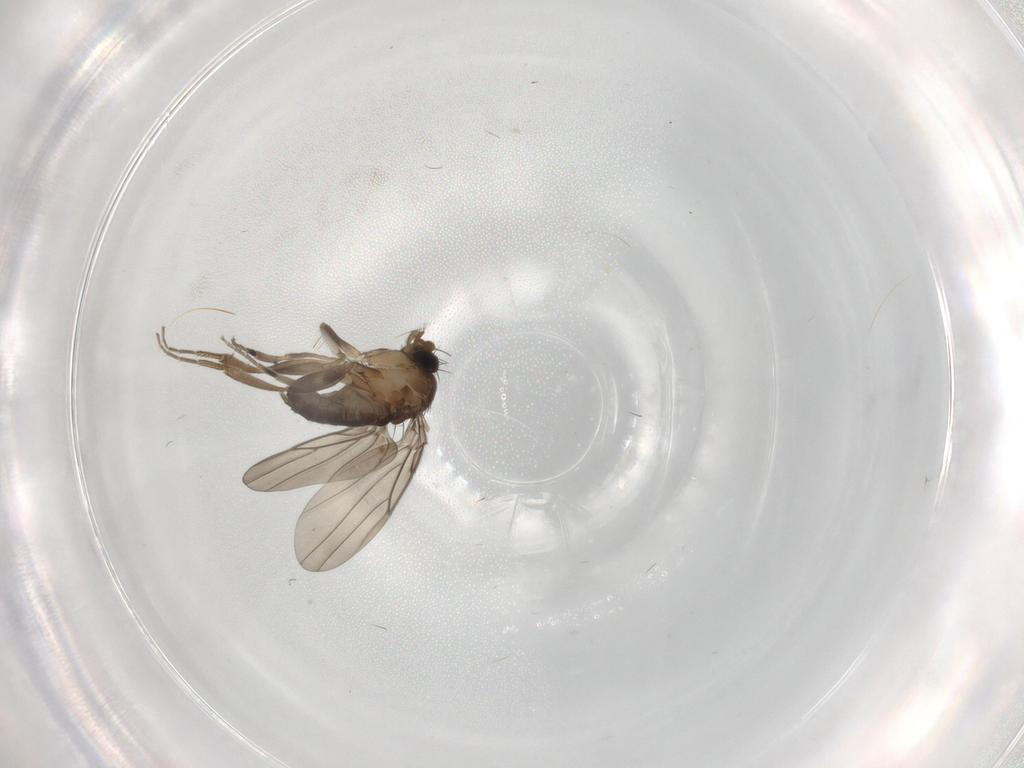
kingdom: Animalia
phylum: Arthropoda
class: Insecta
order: Diptera
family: Phoridae
